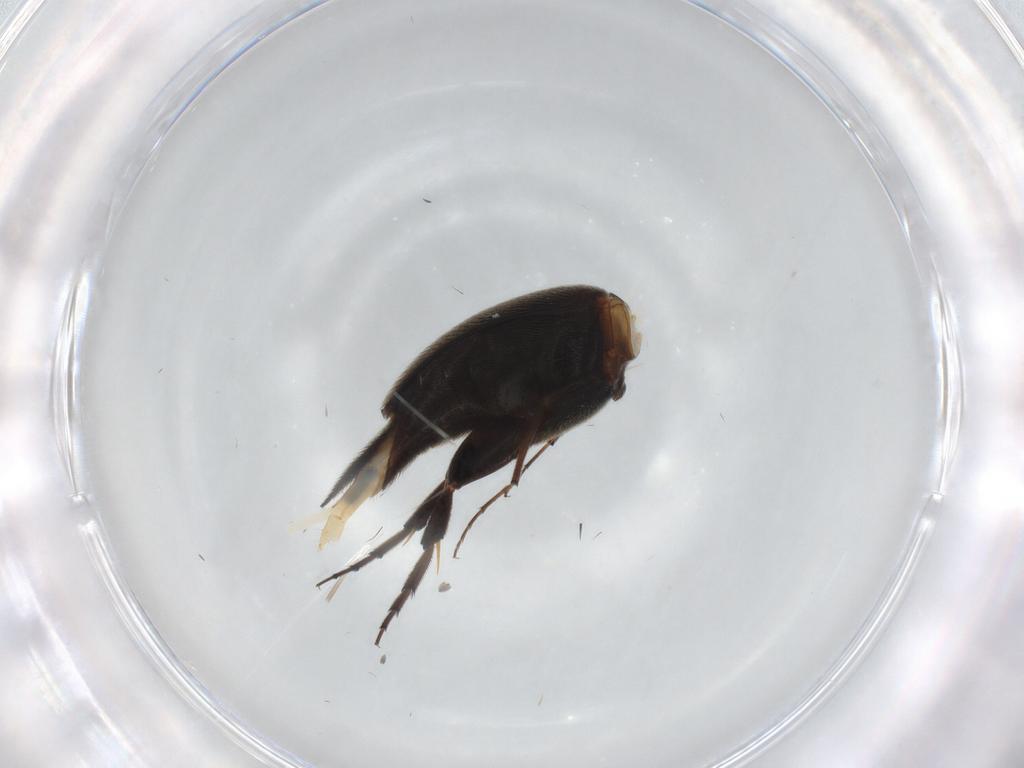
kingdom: Animalia
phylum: Arthropoda
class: Insecta
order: Coleoptera
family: Mordellidae
